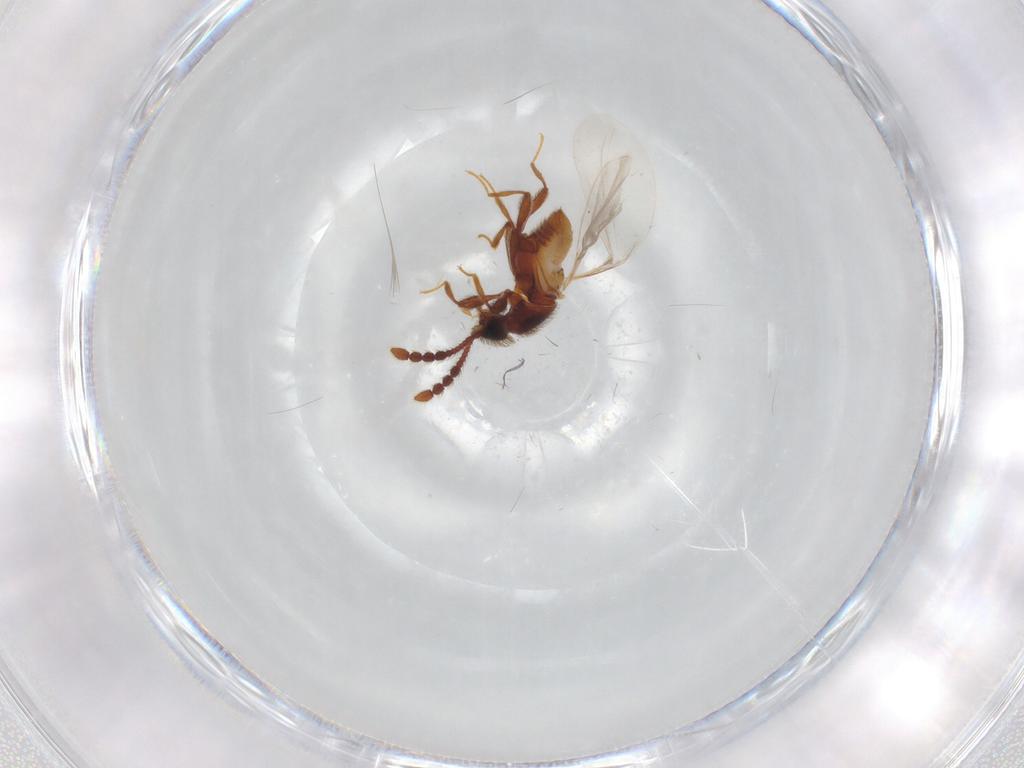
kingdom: Animalia
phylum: Arthropoda
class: Insecta
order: Coleoptera
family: Staphylinidae
